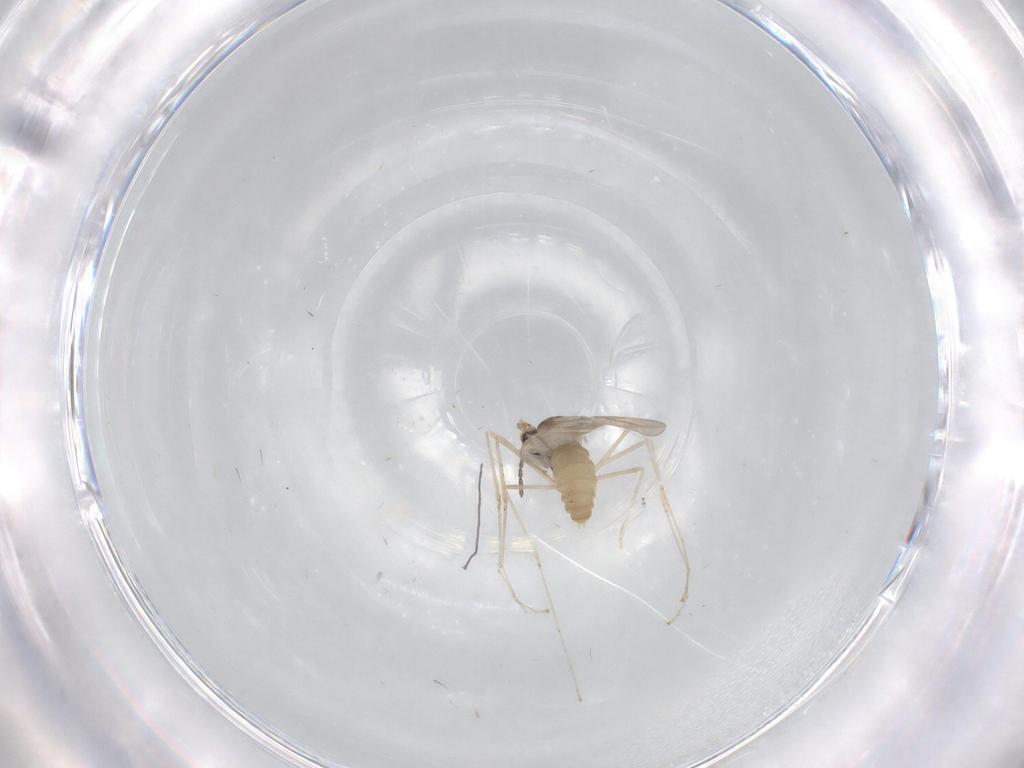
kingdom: Animalia
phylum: Arthropoda
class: Insecta
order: Diptera
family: Cecidomyiidae
